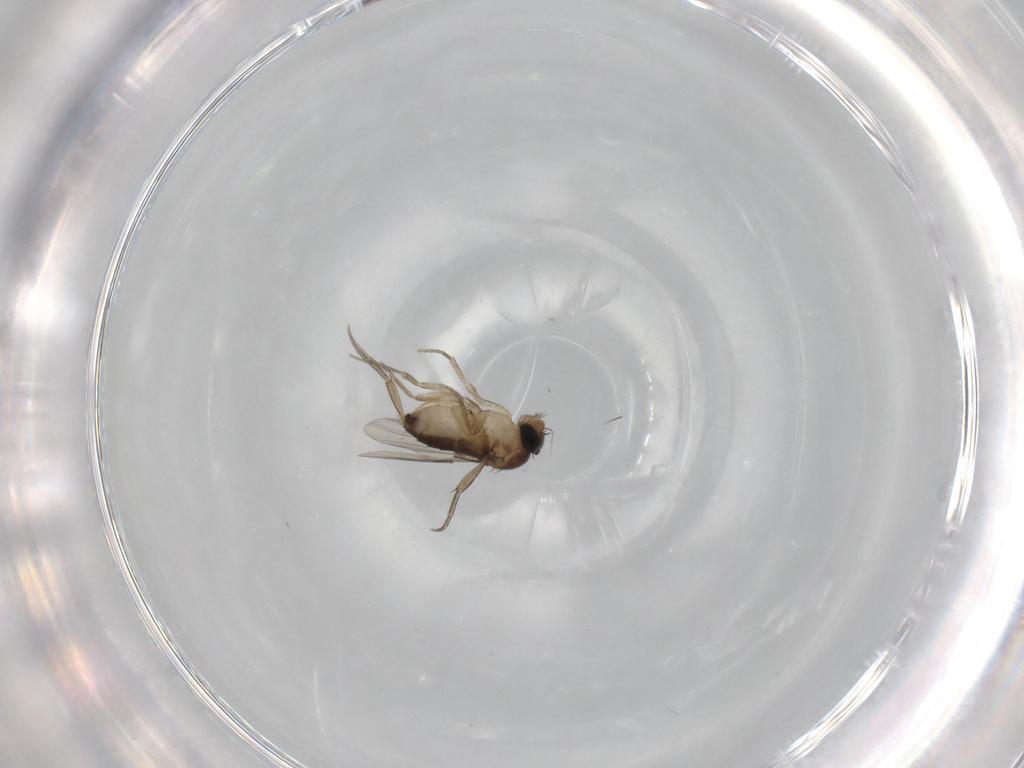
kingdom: Animalia
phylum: Arthropoda
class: Insecta
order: Diptera
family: Phoridae
